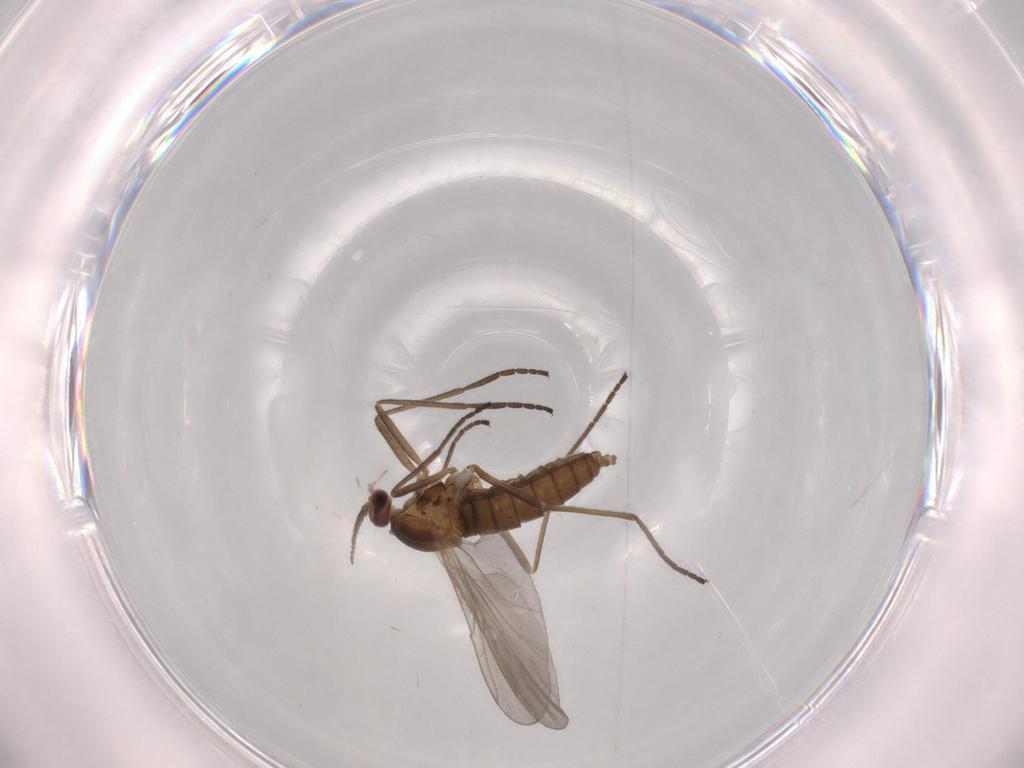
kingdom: Animalia
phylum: Arthropoda
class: Insecta
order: Diptera
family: Cecidomyiidae
